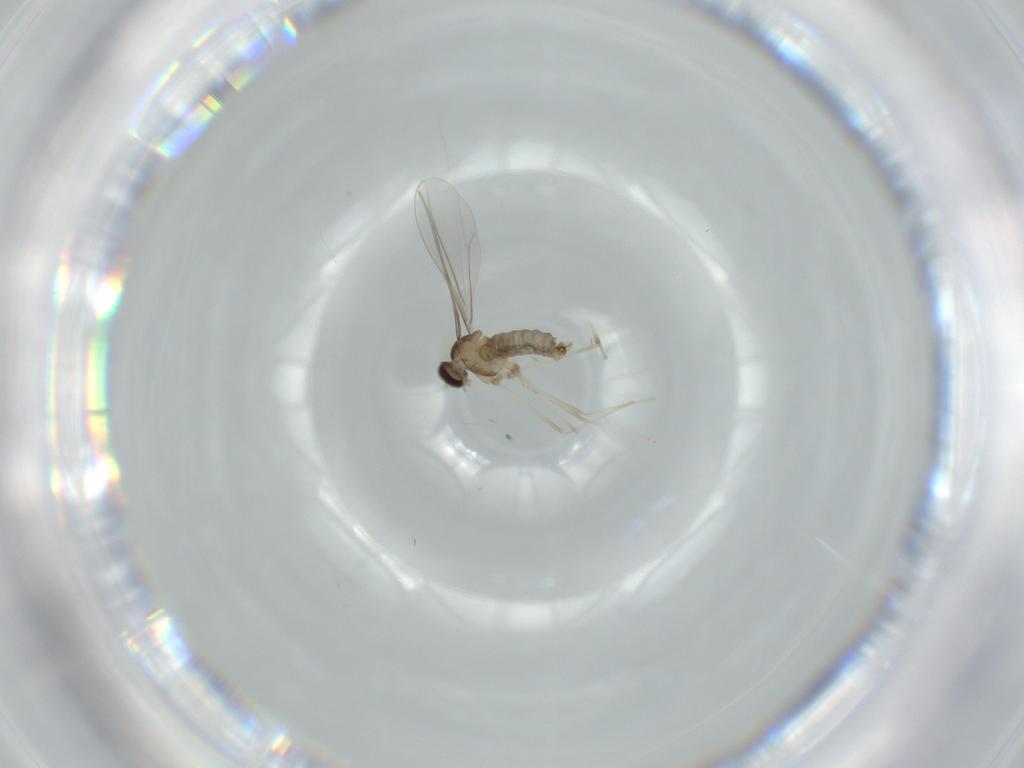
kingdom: Animalia
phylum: Arthropoda
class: Insecta
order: Diptera
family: Cecidomyiidae
